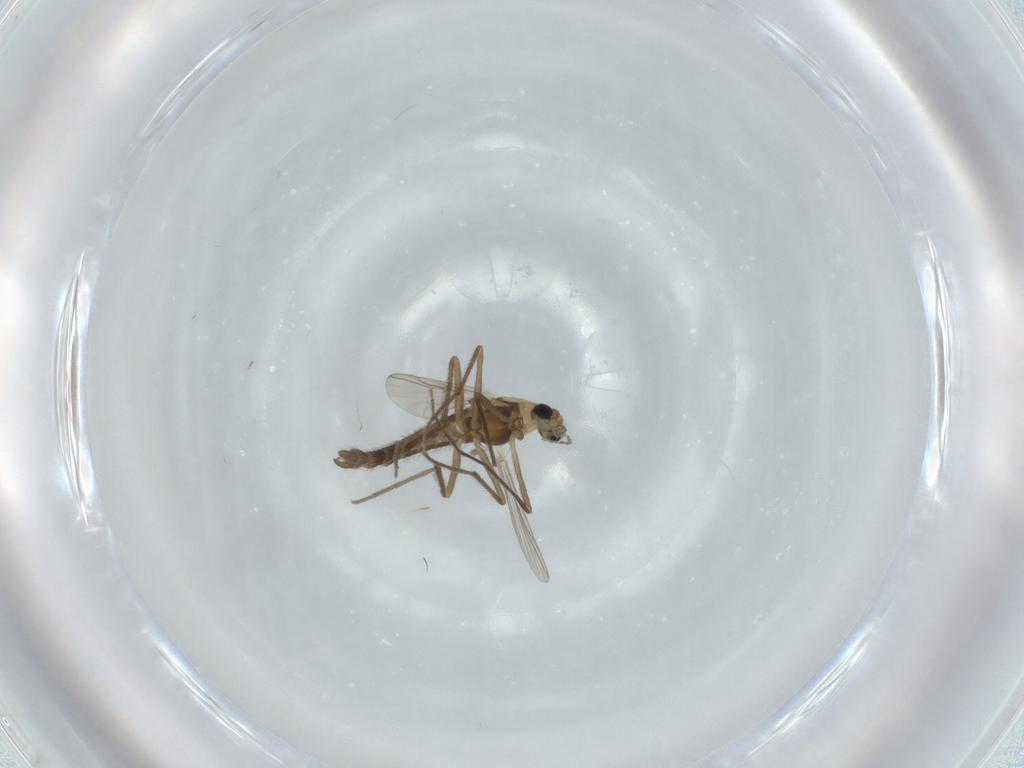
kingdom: Animalia
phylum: Arthropoda
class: Insecta
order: Diptera
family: Chironomidae
